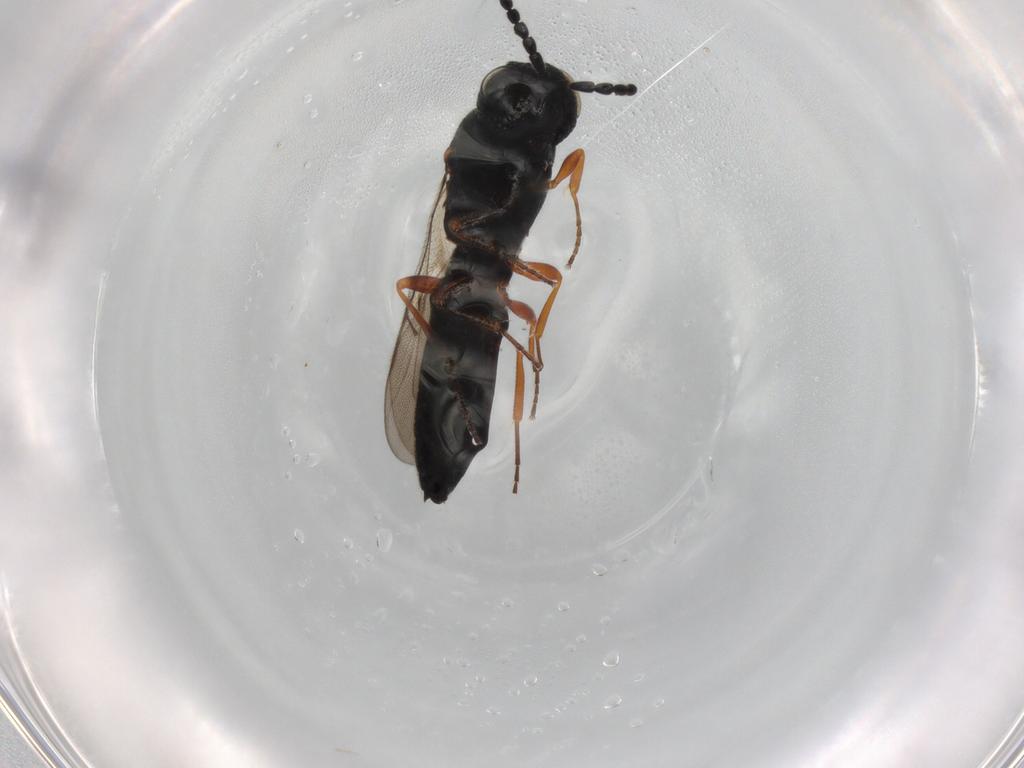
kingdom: Animalia
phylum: Arthropoda
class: Insecta
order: Hymenoptera
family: Scelionidae
